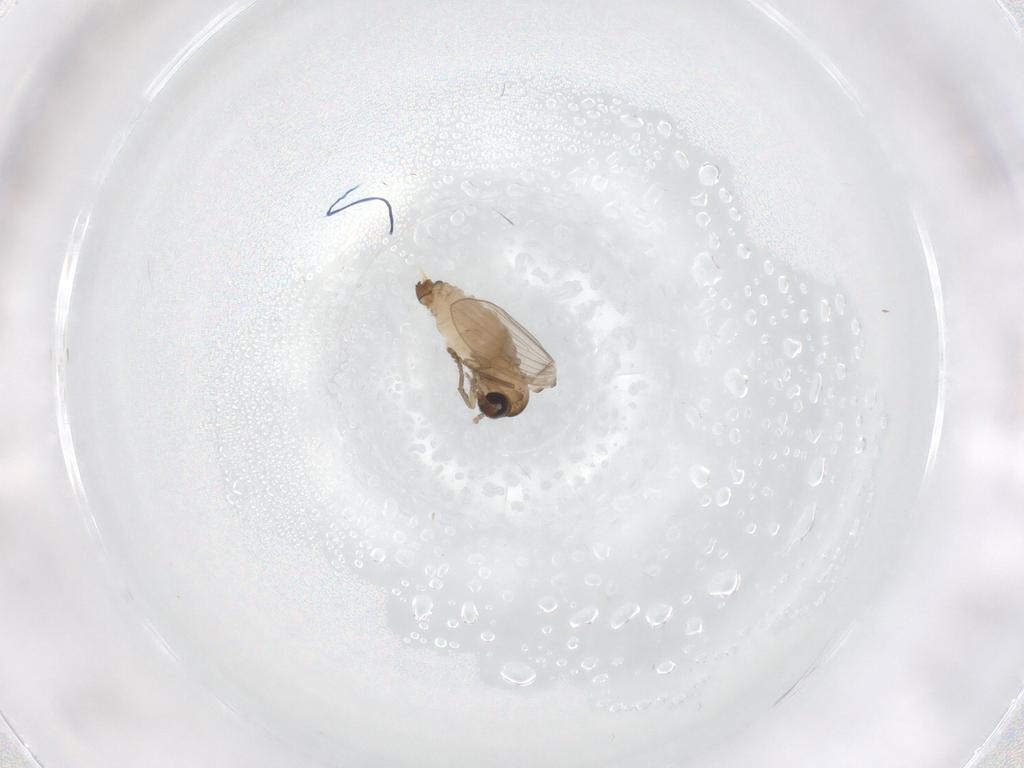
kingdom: Animalia
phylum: Arthropoda
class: Insecta
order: Diptera
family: Psychodidae
